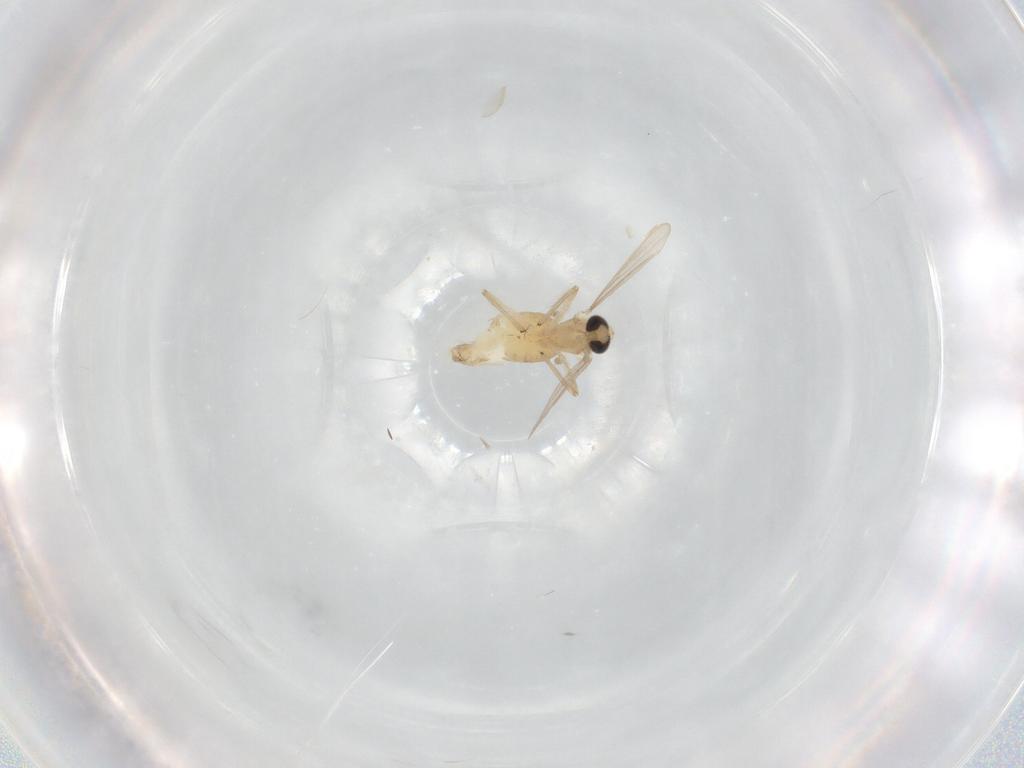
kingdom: Animalia
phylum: Arthropoda
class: Insecta
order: Diptera
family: Chironomidae
